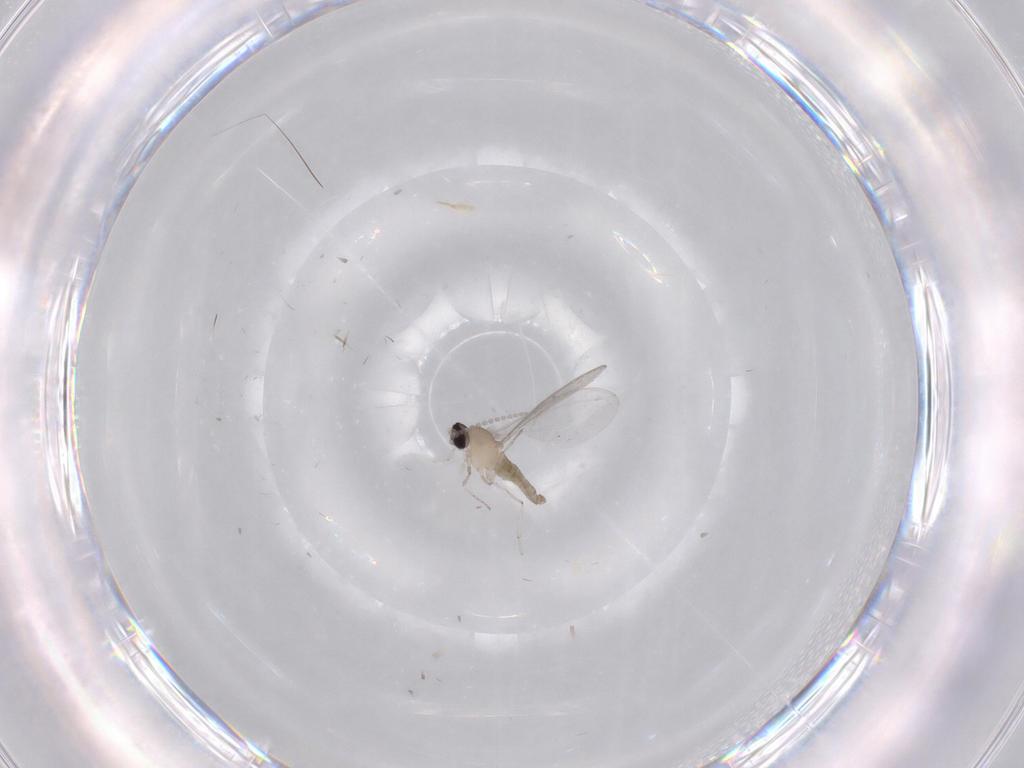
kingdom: Animalia
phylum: Arthropoda
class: Insecta
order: Diptera
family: Cecidomyiidae
